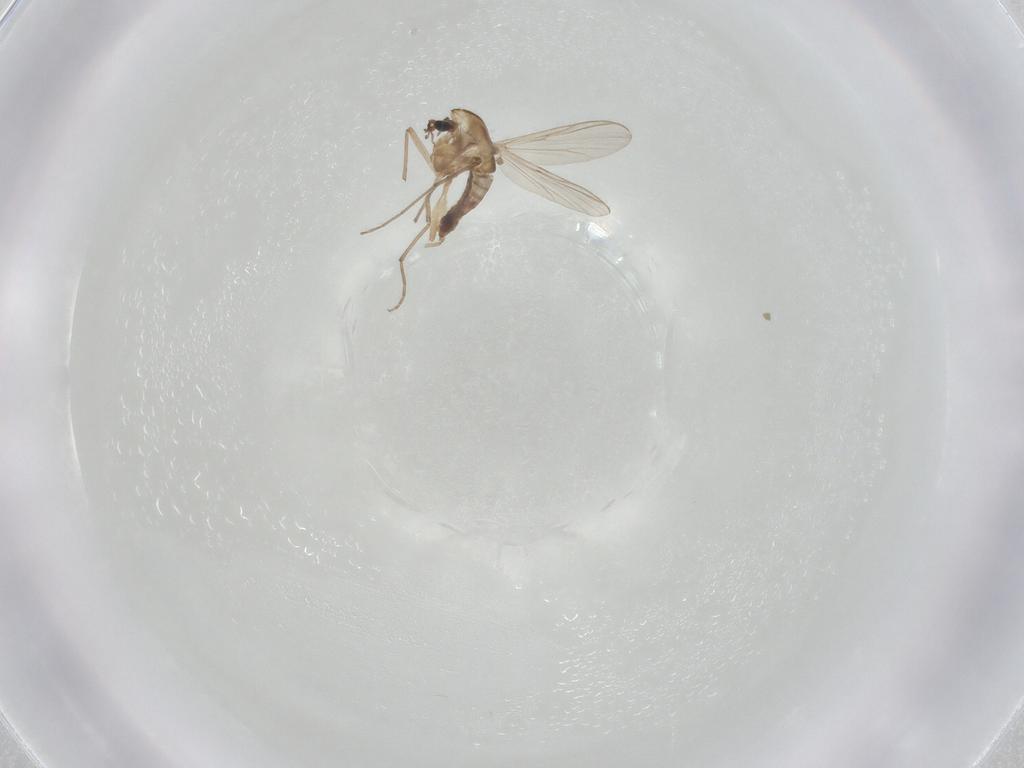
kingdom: Animalia
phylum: Arthropoda
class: Insecta
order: Diptera
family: Chironomidae
